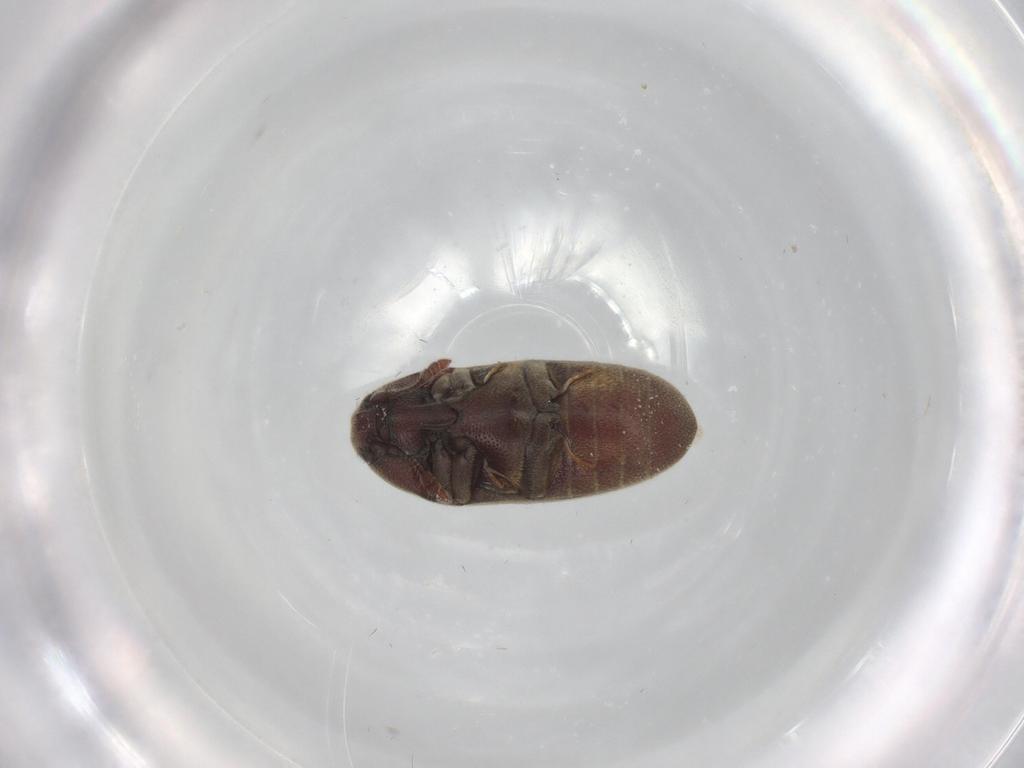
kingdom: Animalia
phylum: Arthropoda
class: Insecta
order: Coleoptera
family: Throscidae
